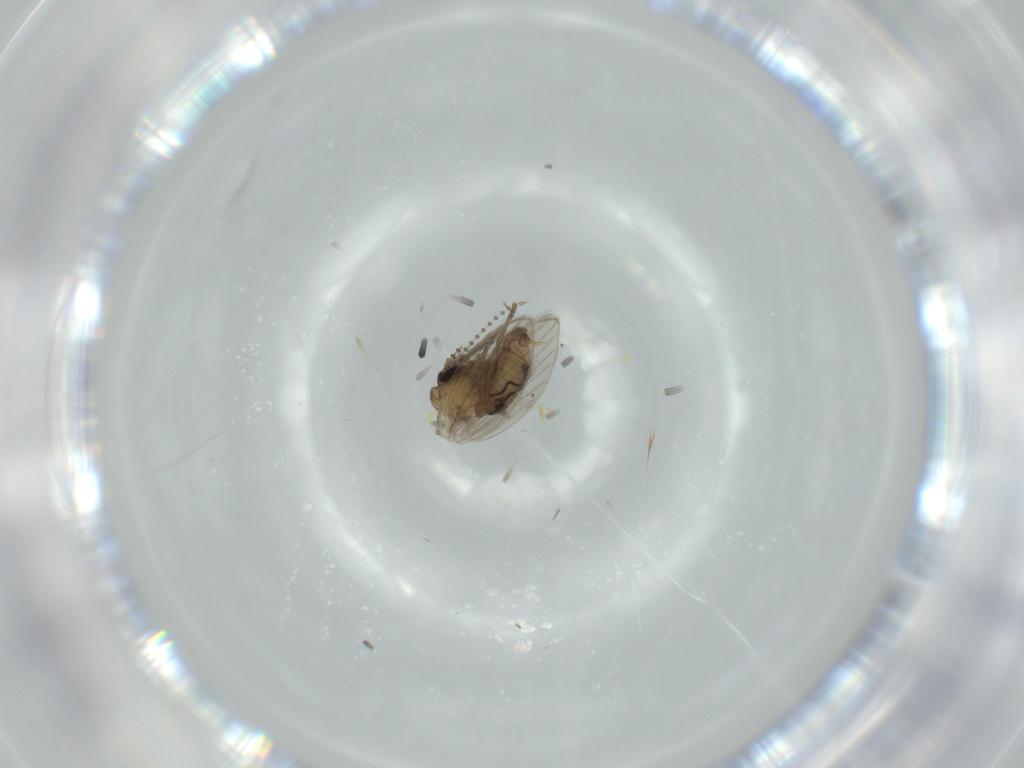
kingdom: Animalia
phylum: Arthropoda
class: Insecta
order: Diptera
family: Psychodidae
